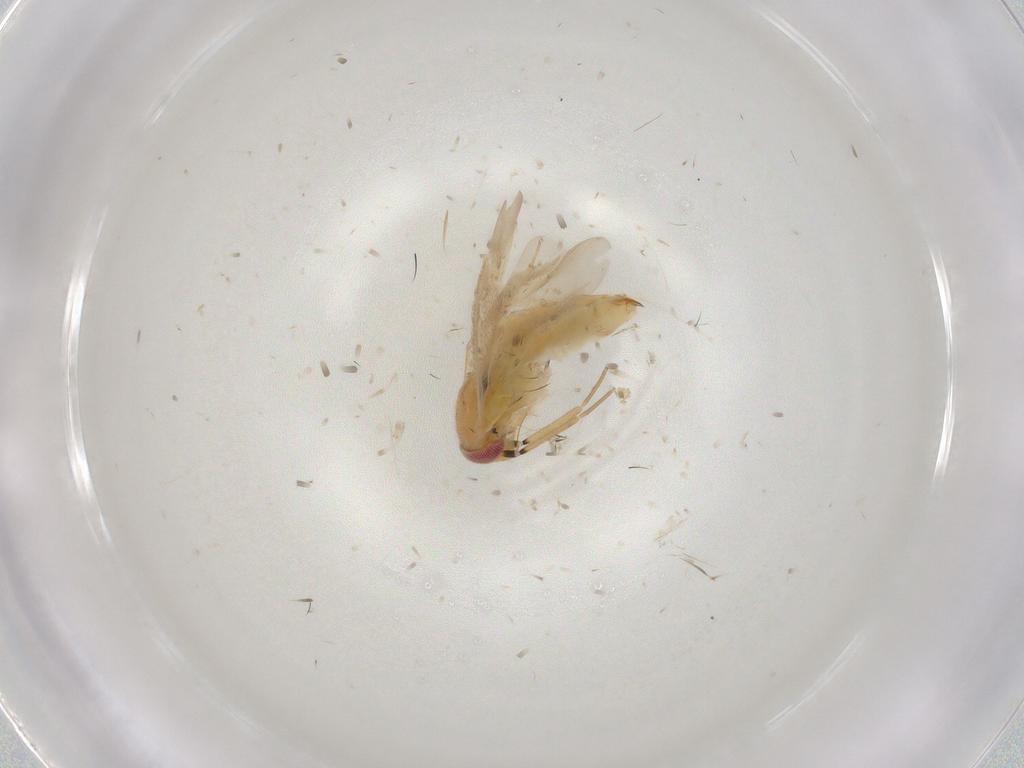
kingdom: Animalia
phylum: Arthropoda
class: Insecta
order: Hemiptera
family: Miridae
